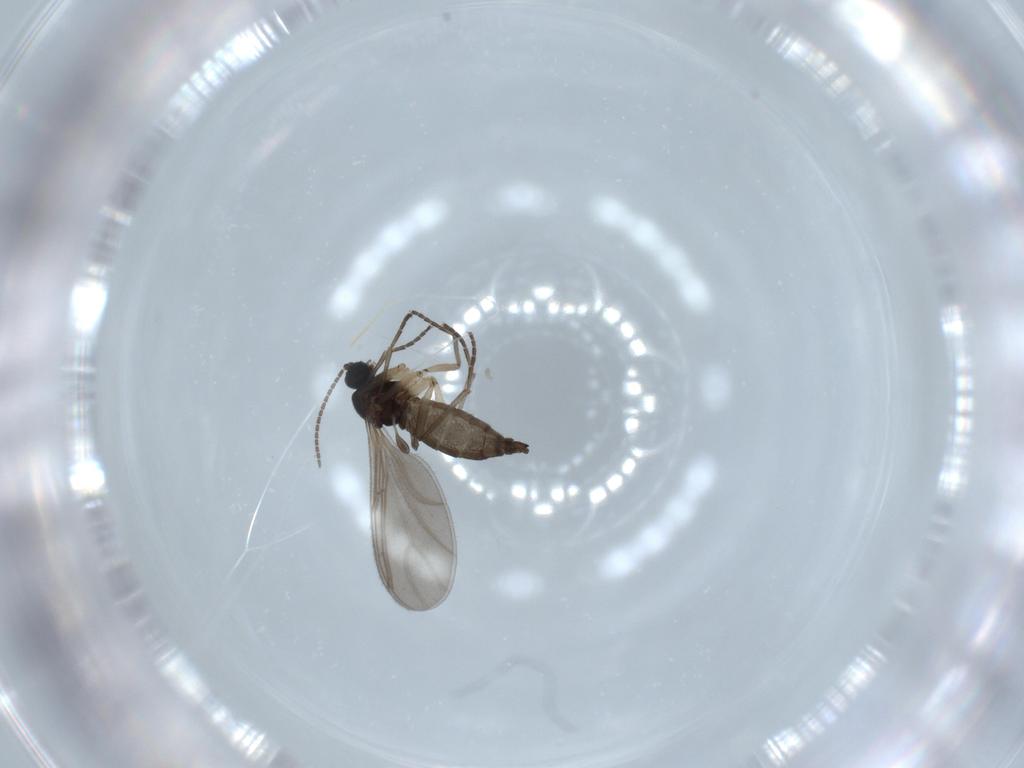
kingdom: Animalia
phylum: Arthropoda
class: Insecta
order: Diptera
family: Sciaridae
